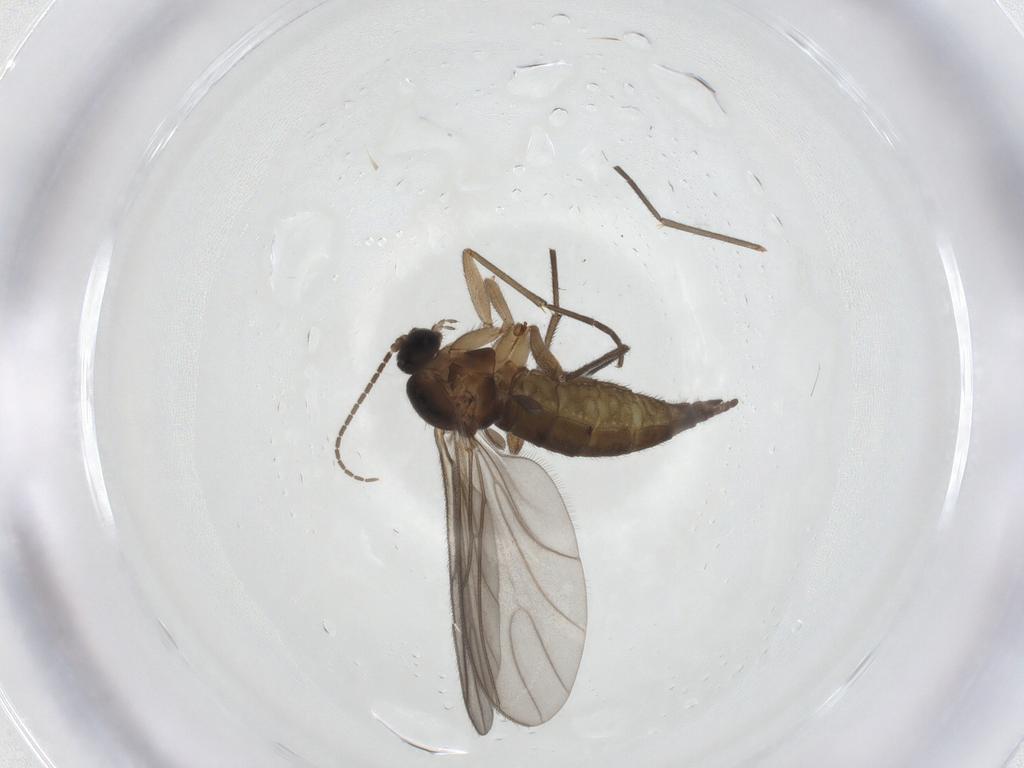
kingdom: Animalia
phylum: Arthropoda
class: Insecta
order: Diptera
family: Sciaridae
